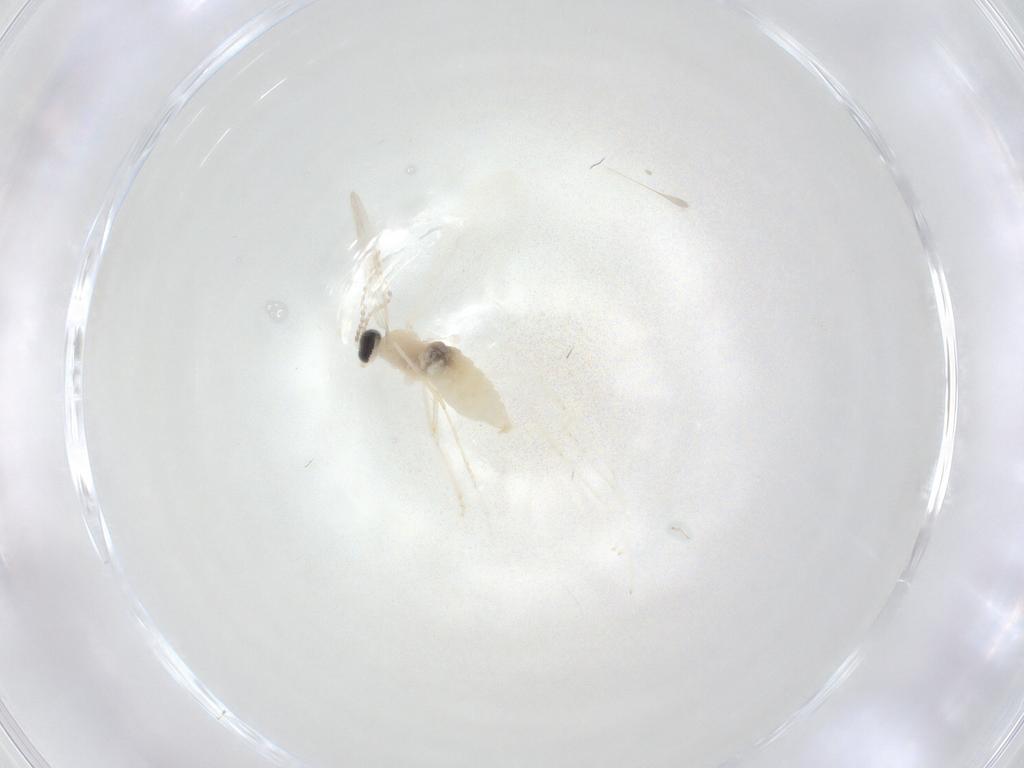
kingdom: Animalia
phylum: Arthropoda
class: Insecta
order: Diptera
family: Cecidomyiidae
